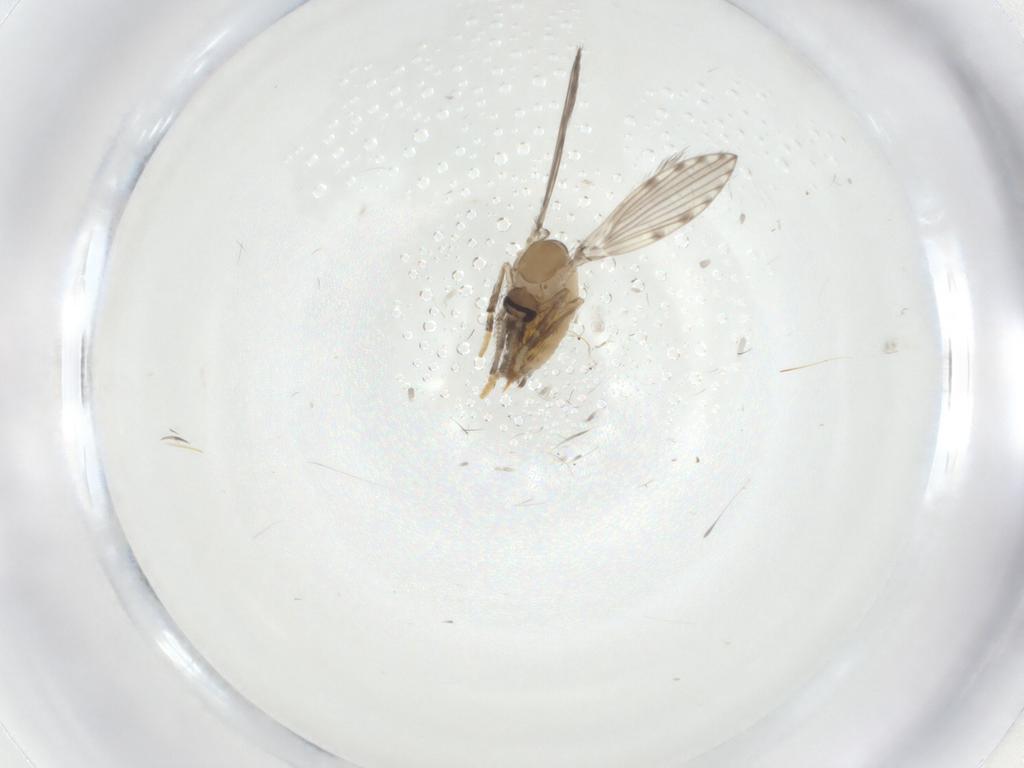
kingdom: Animalia
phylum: Arthropoda
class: Insecta
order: Diptera
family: Psychodidae
